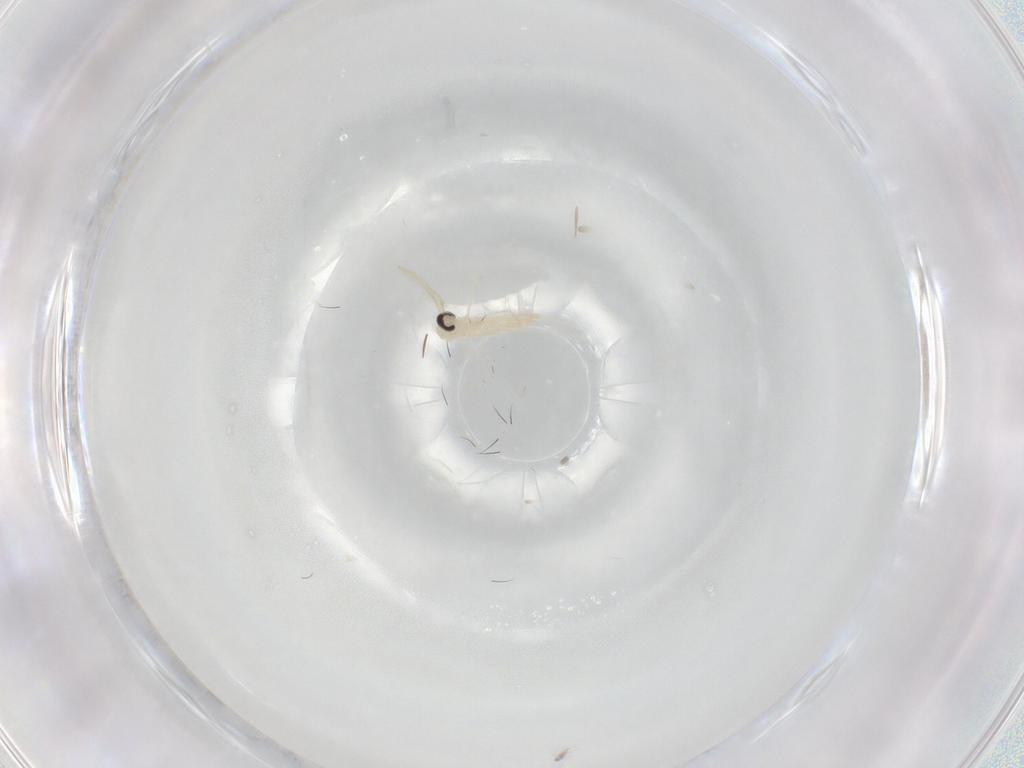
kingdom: Animalia
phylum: Arthropoda
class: Insecta
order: Diptera
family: Cecidomyiidae
